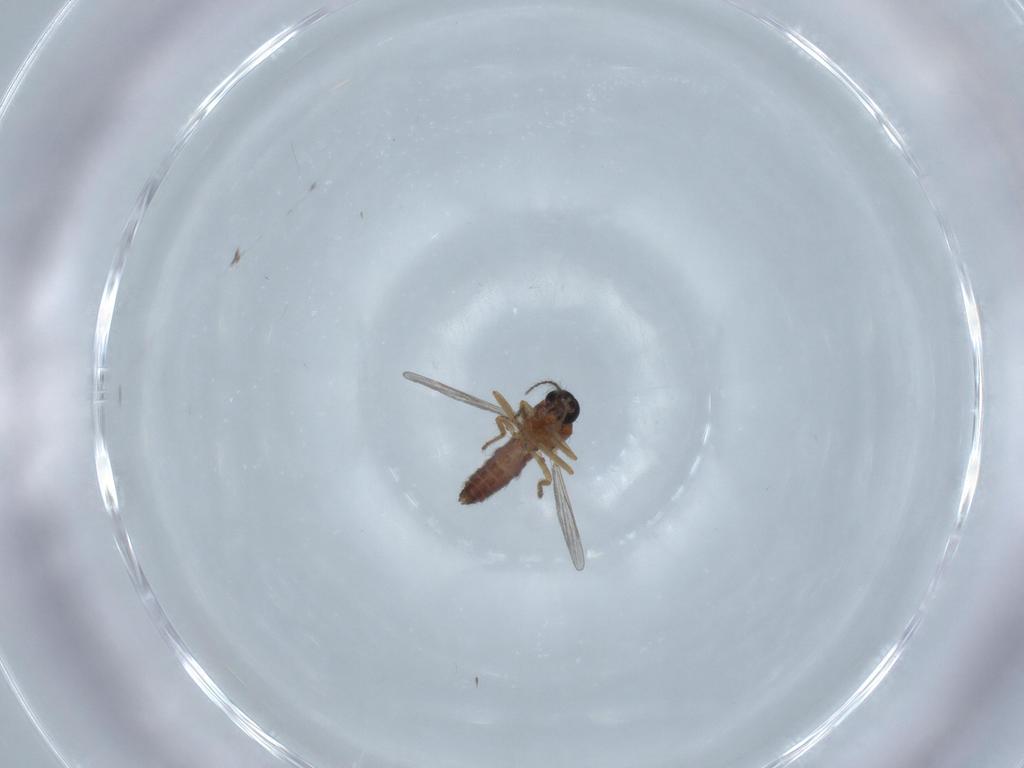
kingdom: Animalia
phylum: Arthropoda
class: Insecta
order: Diptera
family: Ceratopogonidae
